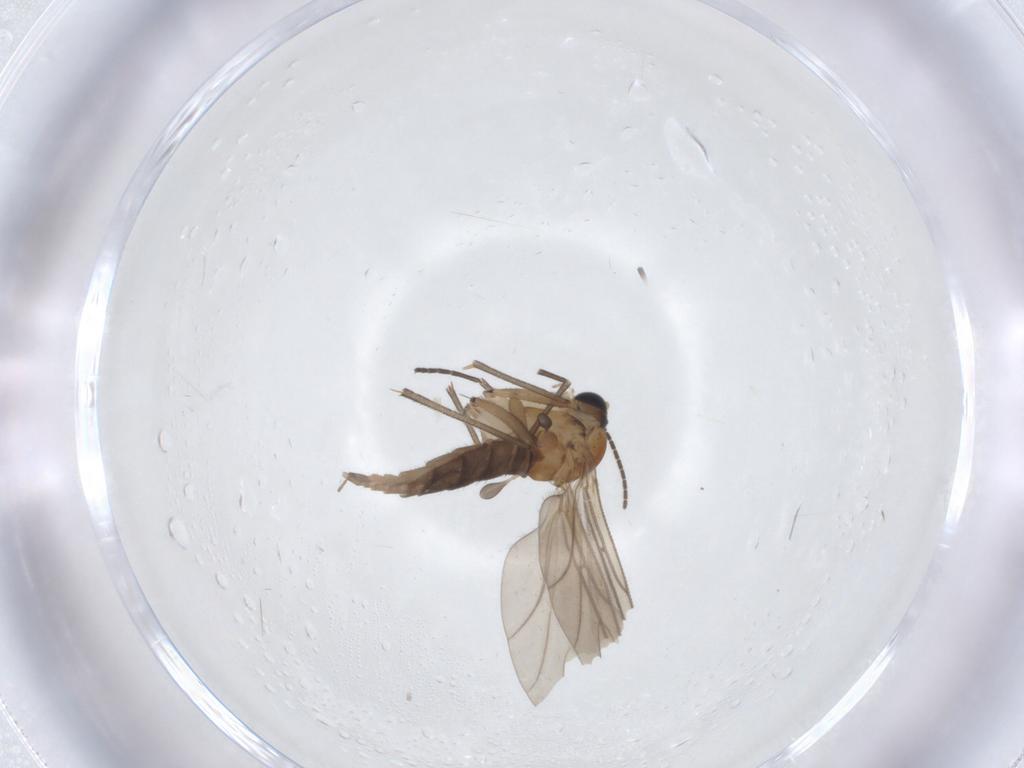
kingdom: Animalia
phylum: Arthropoda
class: Insecta
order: Diptera
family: Sciaridae
